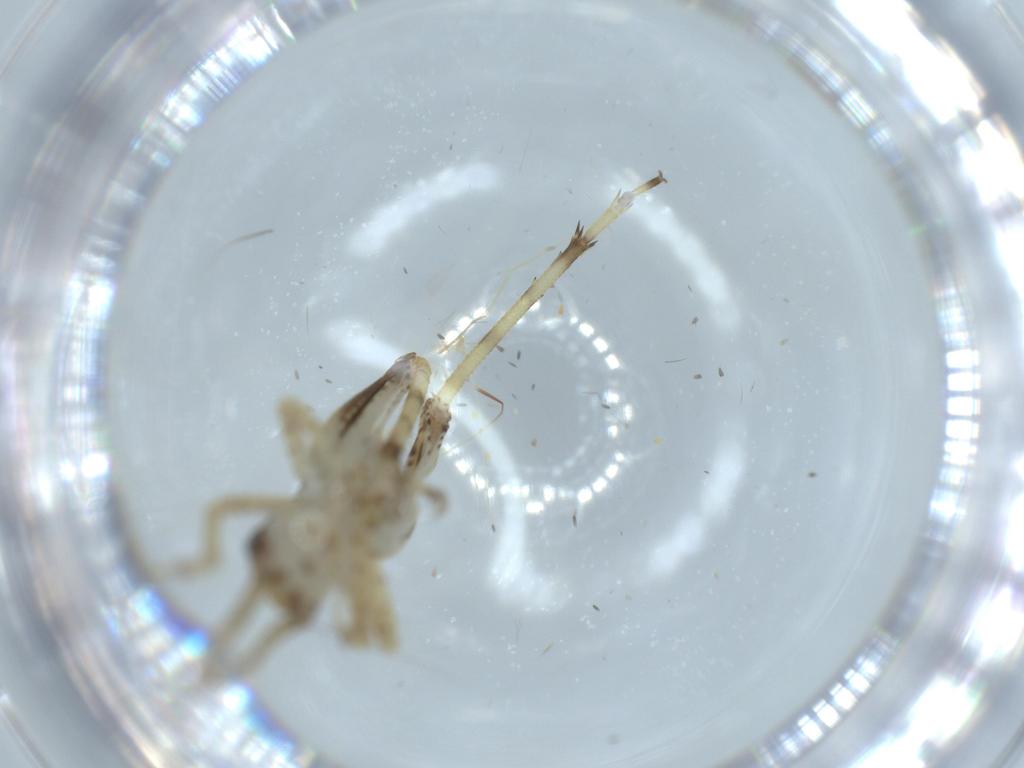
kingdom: Animalia
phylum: Arthropoda
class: Insecta
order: Orthoptera
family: Gryllidae
